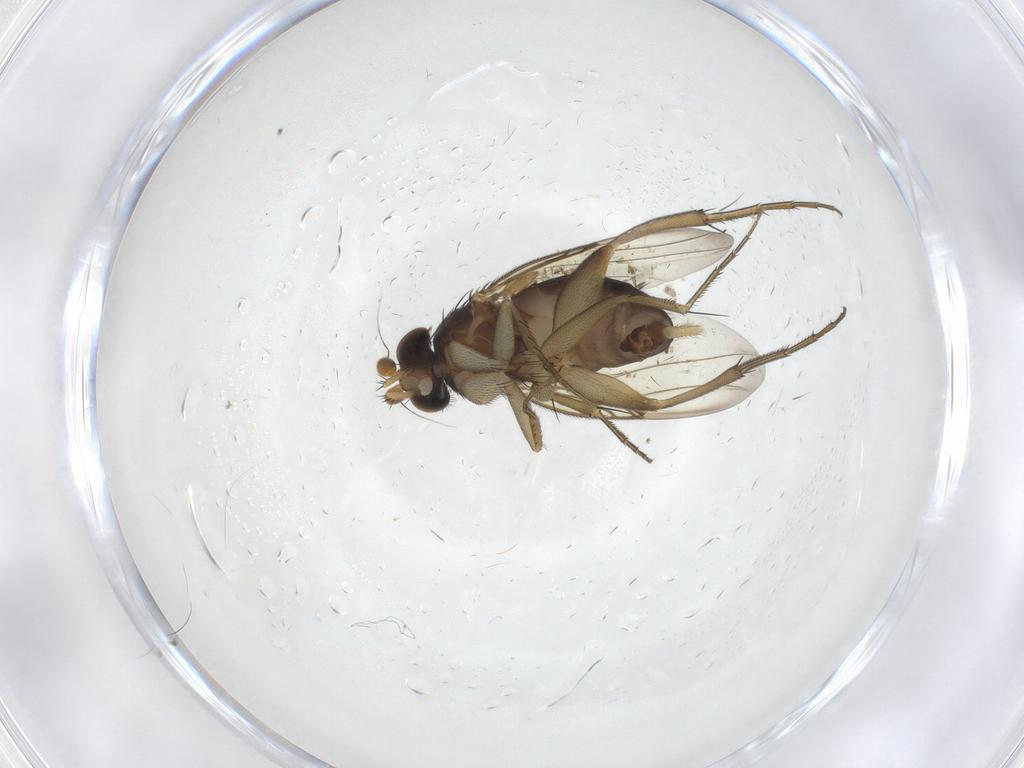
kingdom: Animalia
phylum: Arthropoda
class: Insecta
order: Diptera
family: Phoridae
